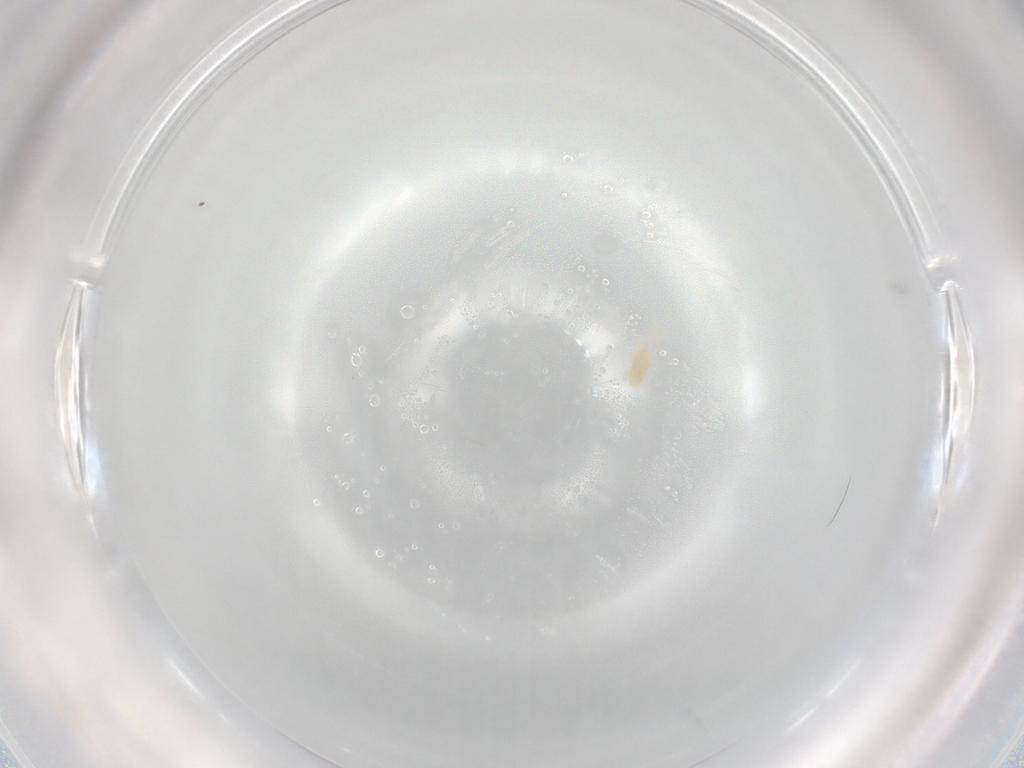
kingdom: Animalia
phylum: Arthropoda
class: Arachnida
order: Trombidiformes
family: Eupodidae
